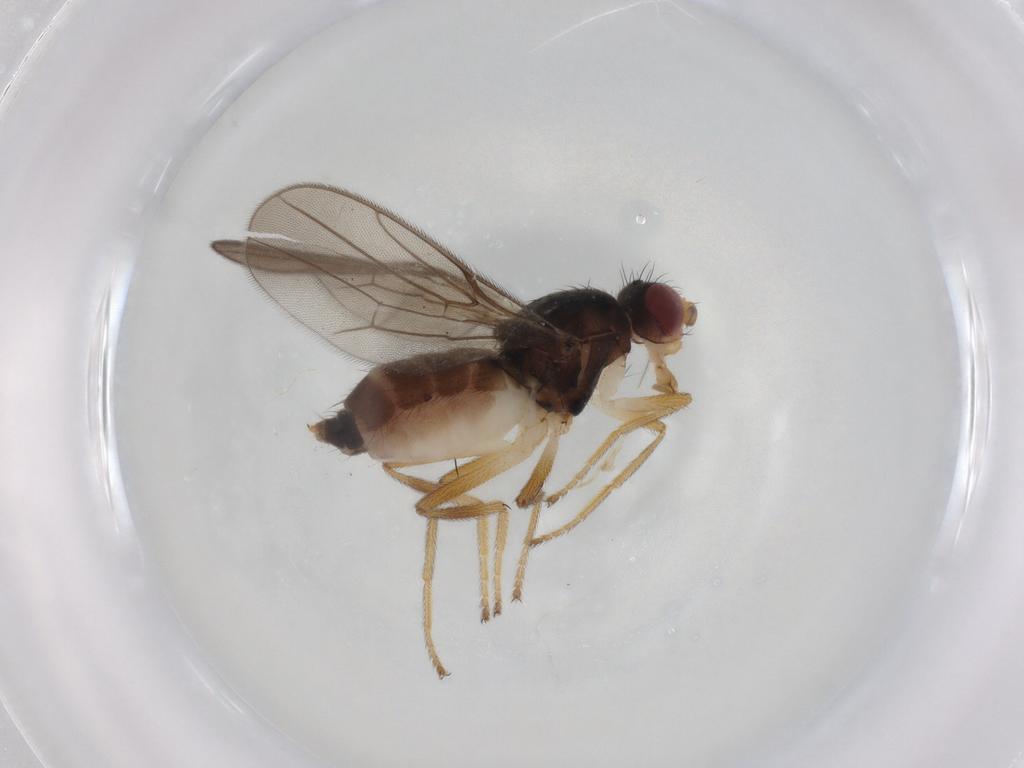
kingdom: Animalia
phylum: Arthropoda
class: Insecta
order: Diptera
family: Chloropidae
